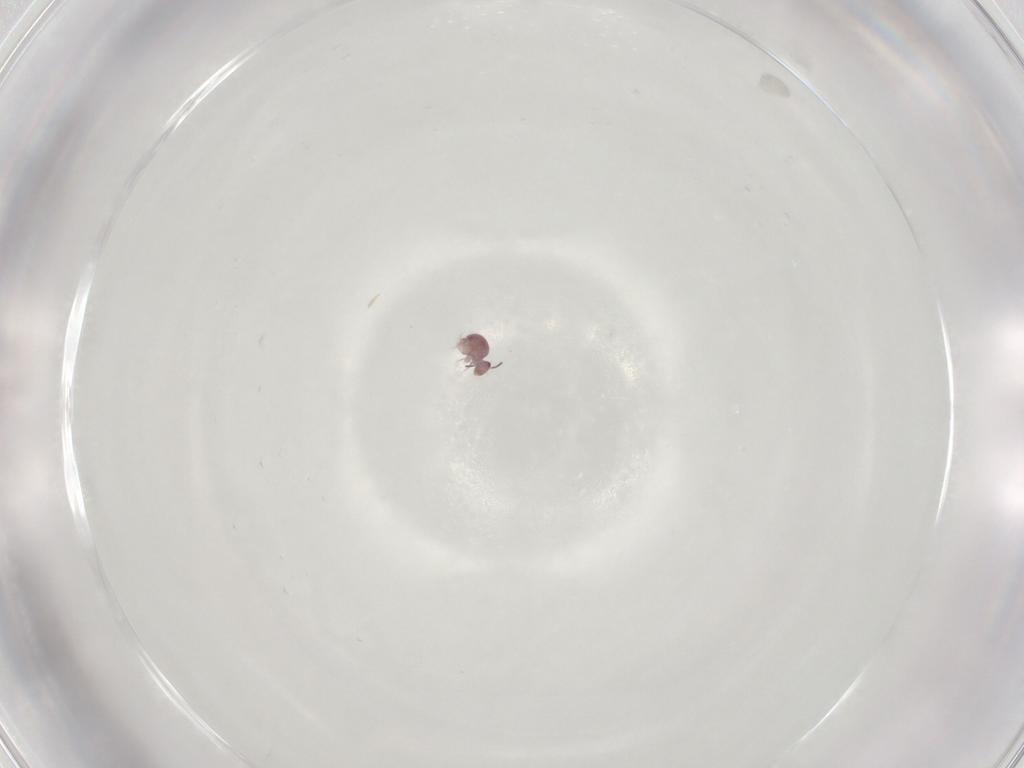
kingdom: Animalia
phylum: Arthropoda
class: Collembola
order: Symphypleona
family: Sminthurididae
